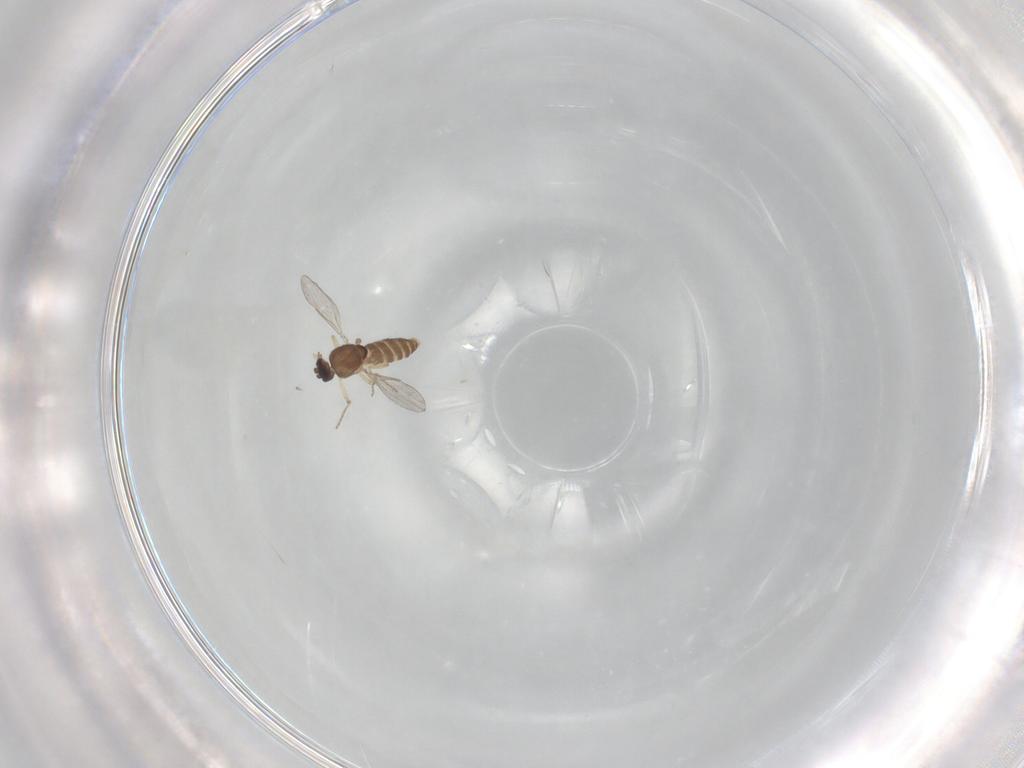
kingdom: Animalia
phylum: Arthropoda
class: Insecta
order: Diptera
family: Ceratopogonidae
